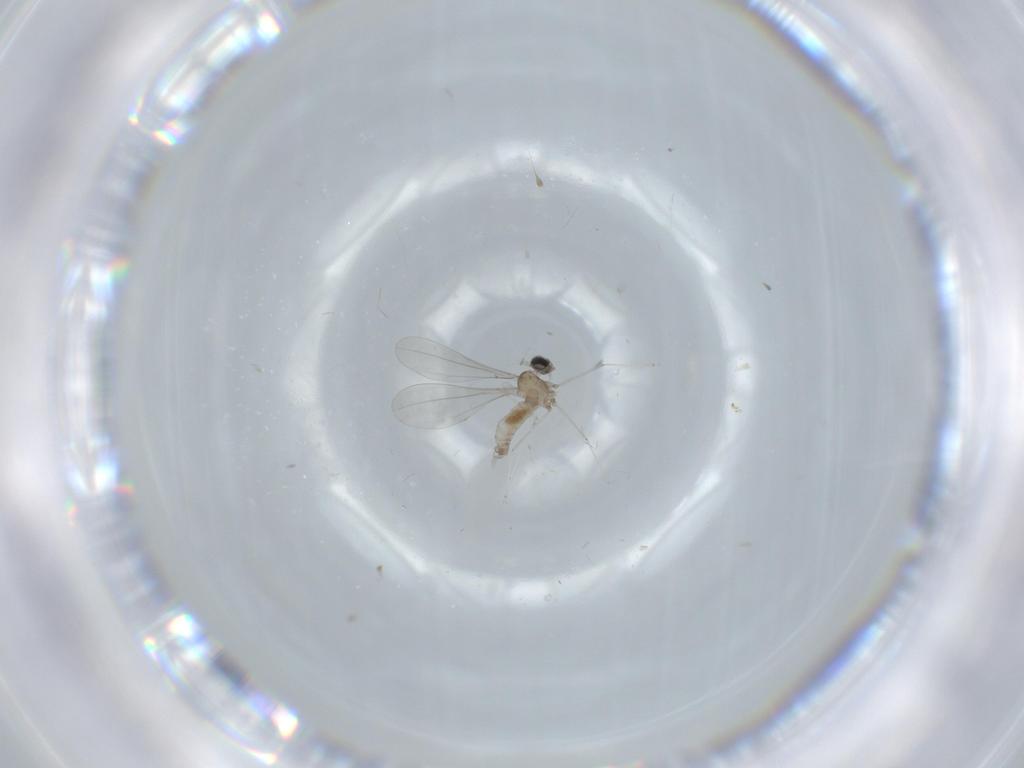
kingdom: Animalia
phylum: Arthropoda
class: Insecta
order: Diptera
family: Cecidomyiidae
